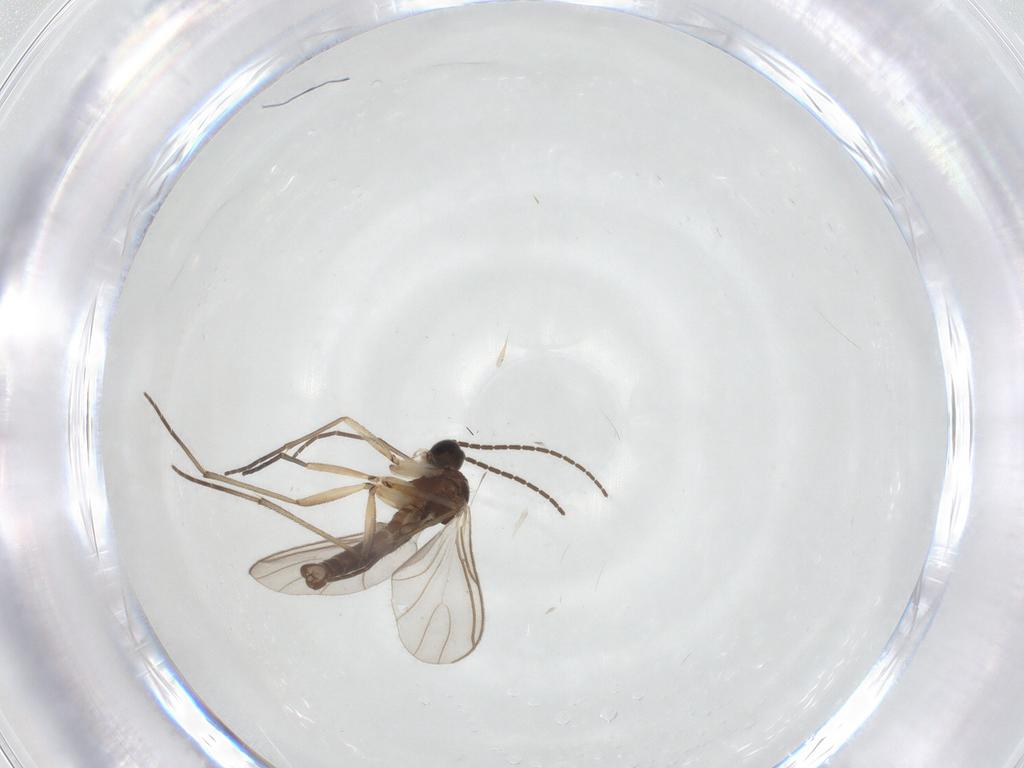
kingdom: Animalia
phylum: Arthropoda
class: Insecta
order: Diptera
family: Sciaridae
